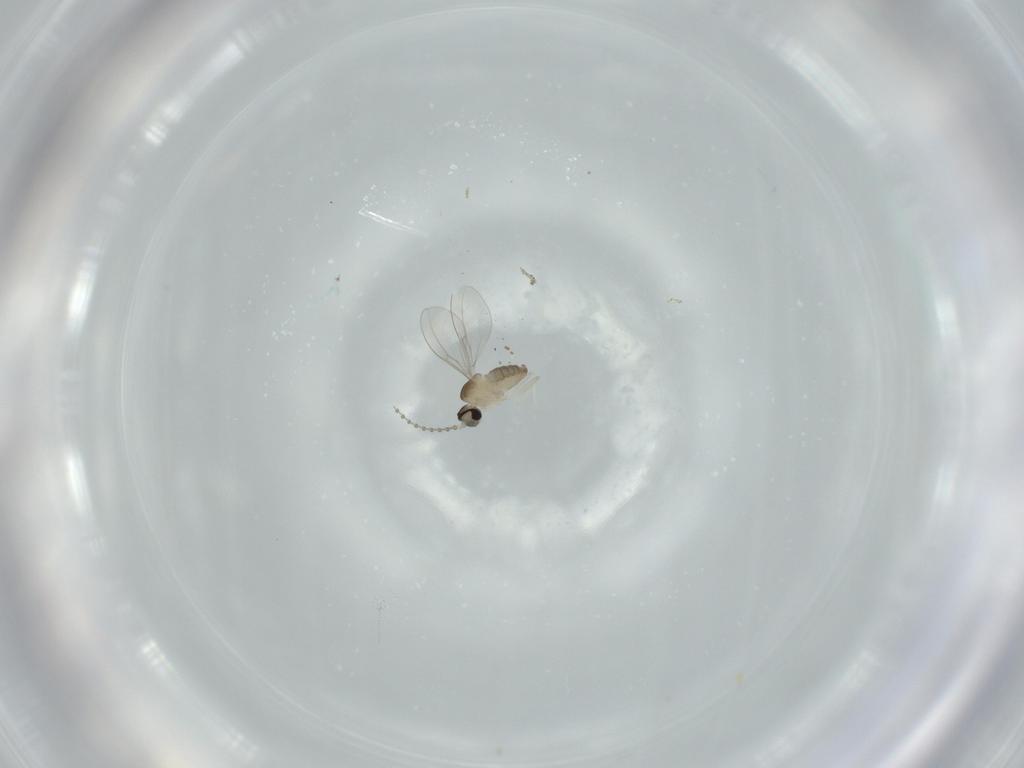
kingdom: Animalia
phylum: Arthropoda
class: Insecta
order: Diptera
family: Cecidomyiidae
